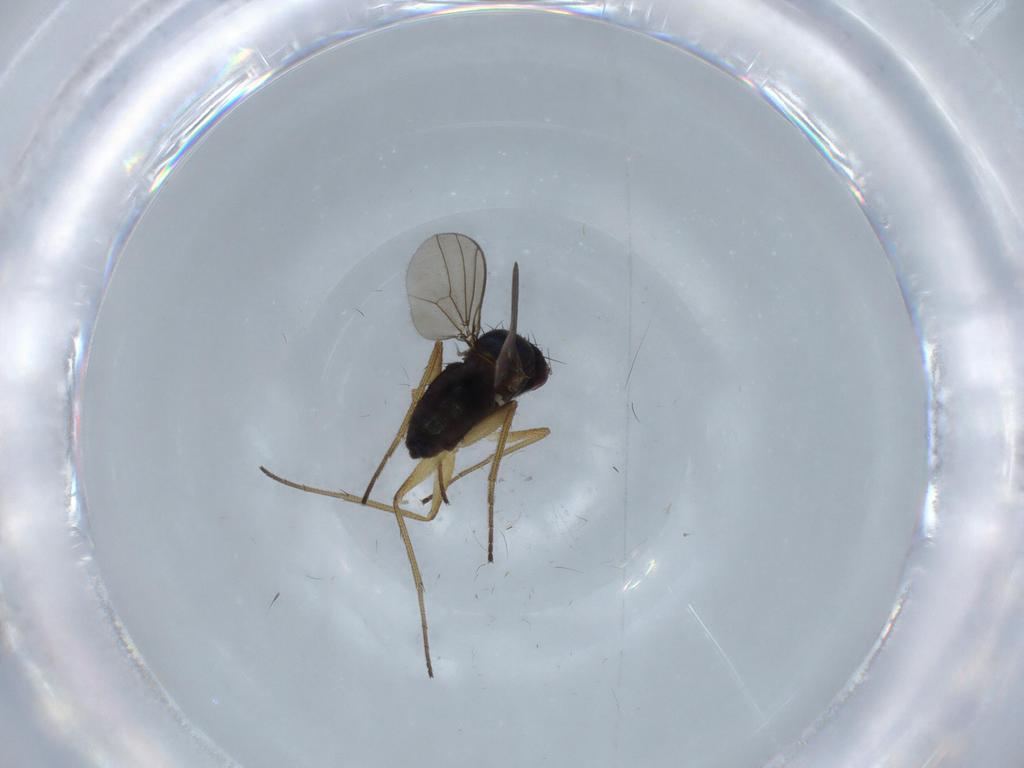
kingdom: Animalia
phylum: Arthropoda
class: Insecta
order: Diptera
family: Dolichopodidae
